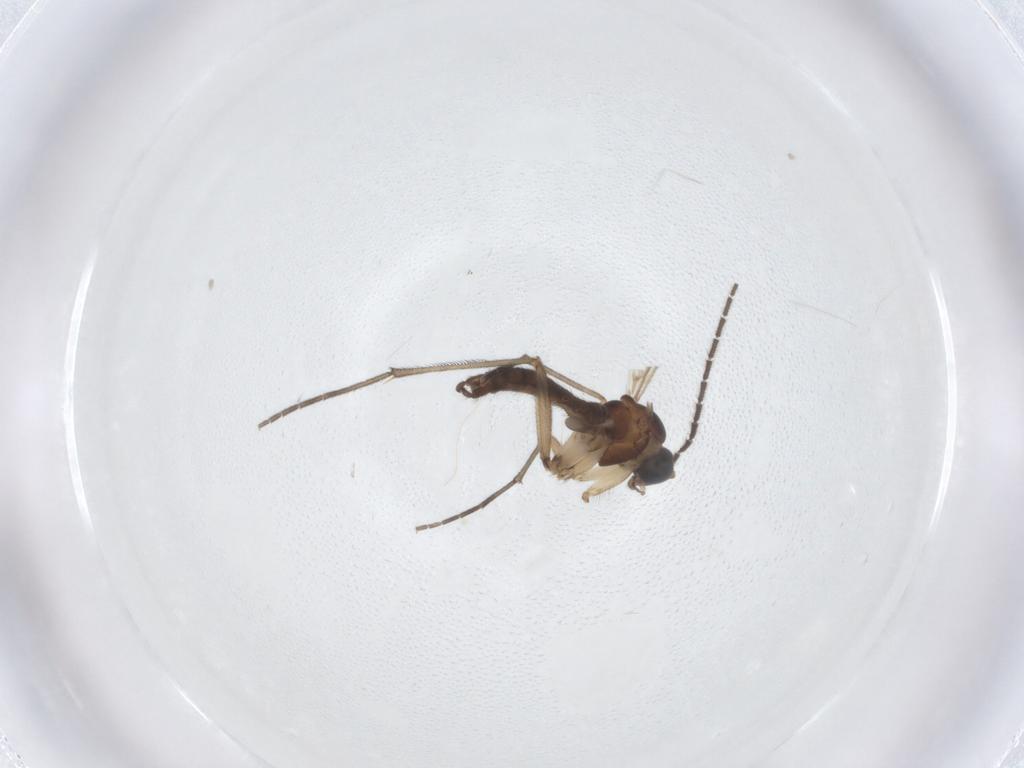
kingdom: Animalia
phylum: Arthropoda
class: Insecta
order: Diptera
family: Sciaridae
